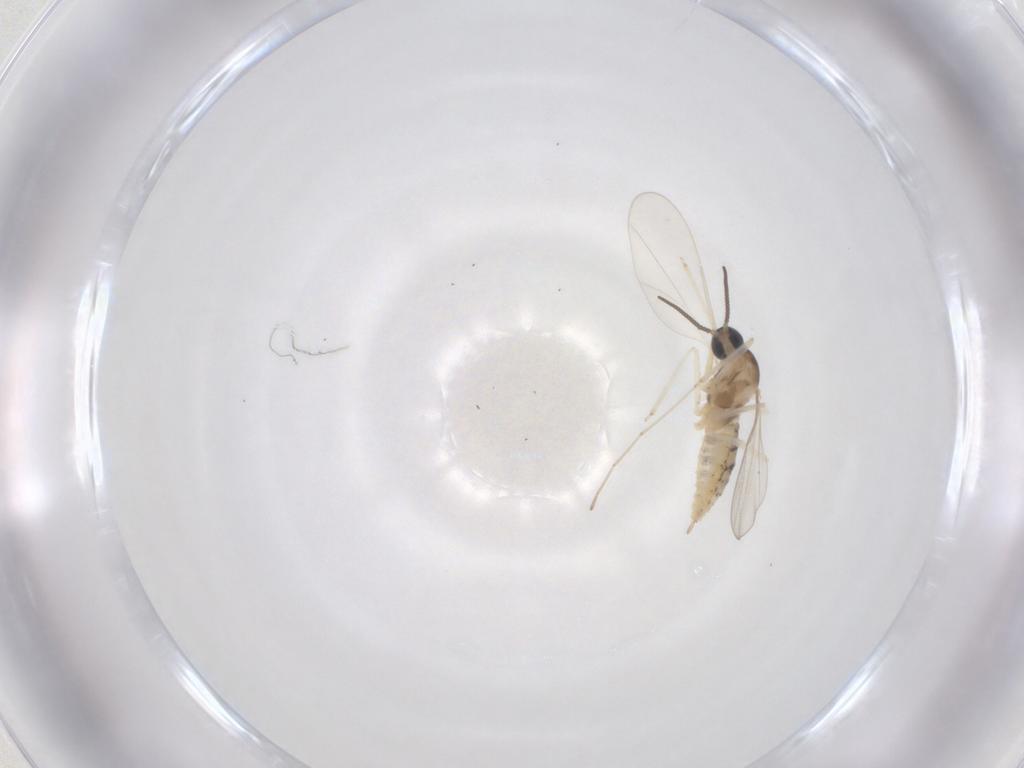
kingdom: Animalia
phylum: Arthropoda
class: Insecta
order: Diptera
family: Cecidomyiidae
